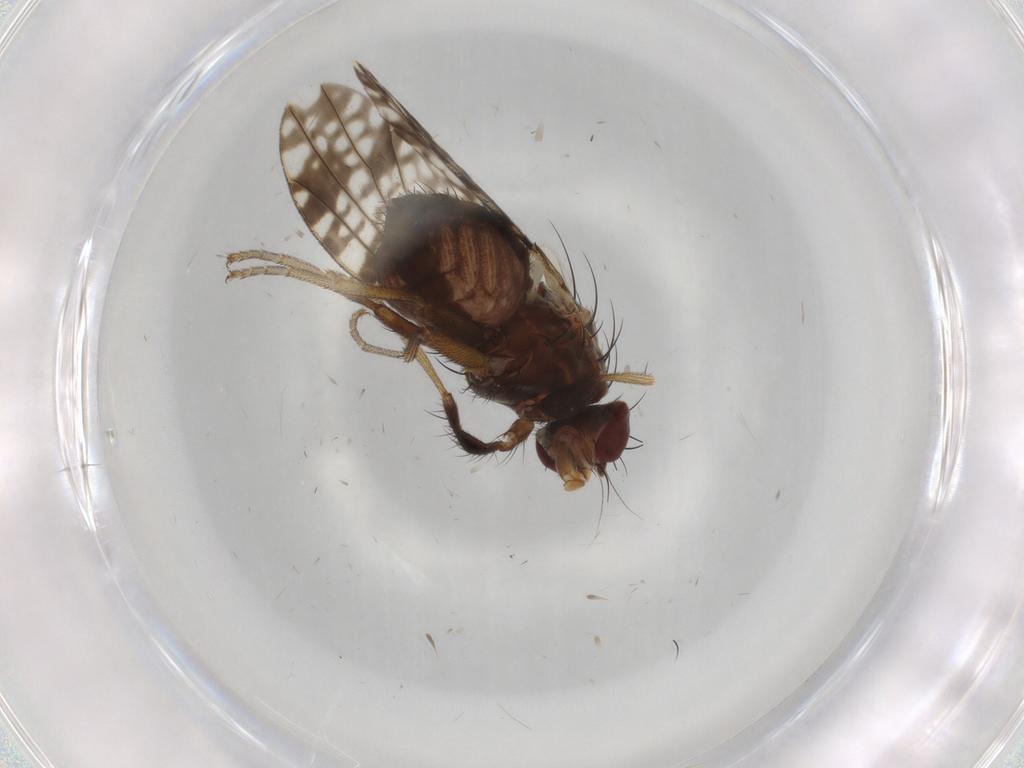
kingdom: Animalia
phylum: Arthropoda
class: Insecta
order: Diptera
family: Tephritidae
